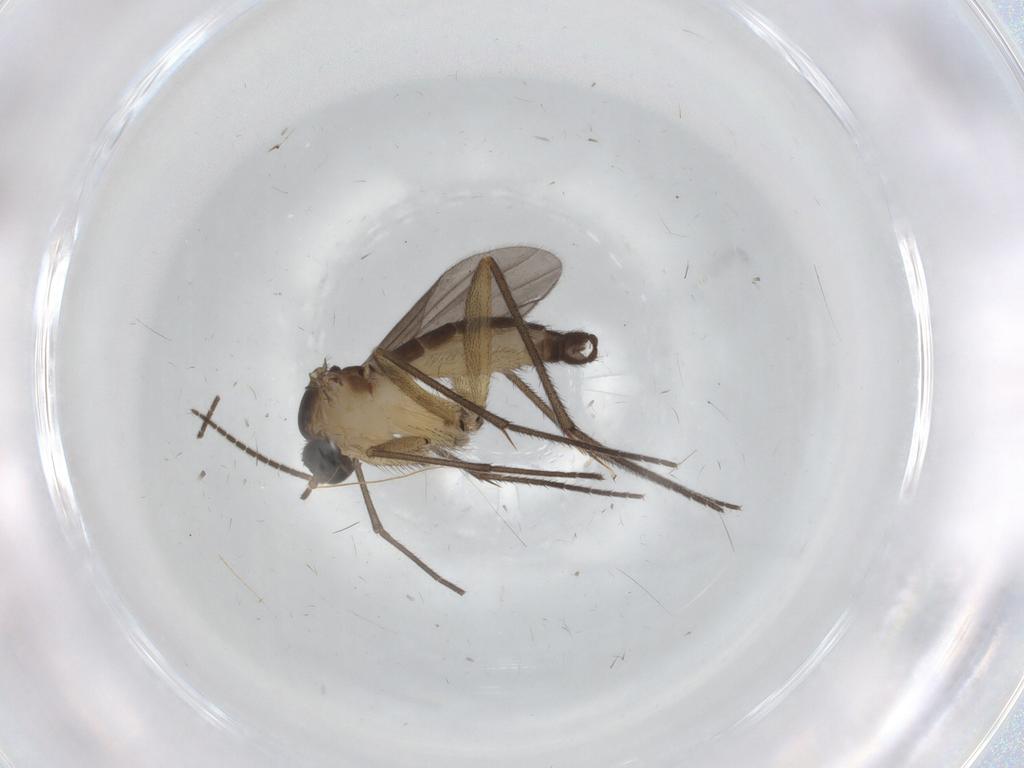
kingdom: Animalia
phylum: Arthropoda
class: Insecta
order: Diptera
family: Sciaridae
